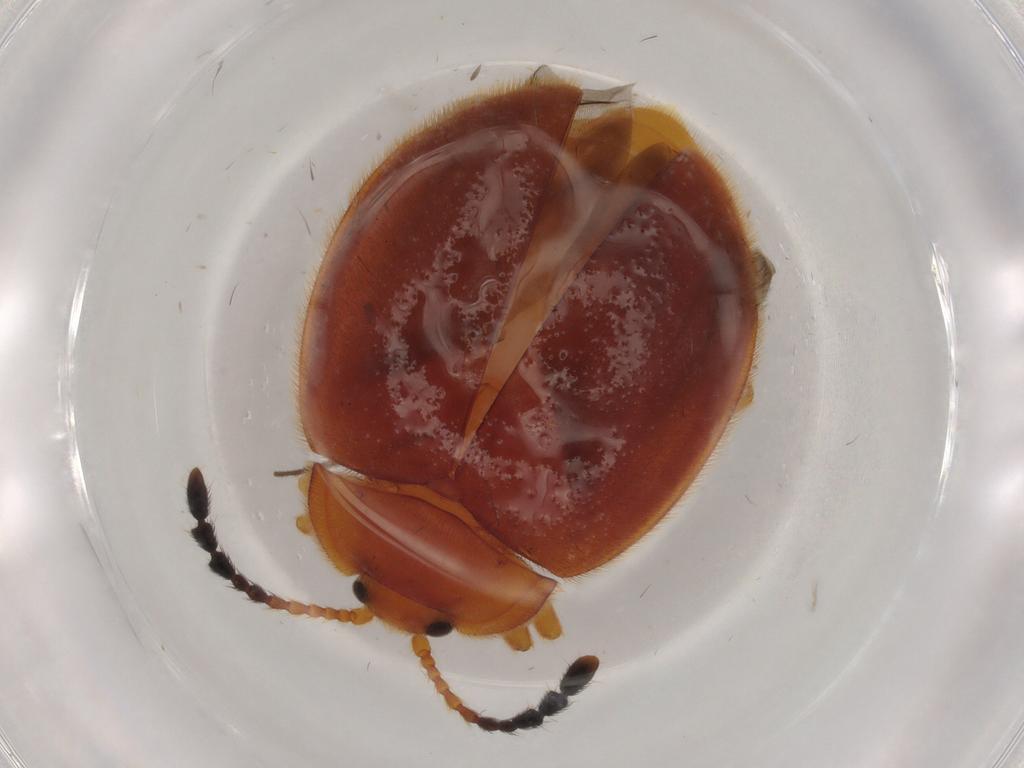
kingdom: Animalia
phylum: Arthropoda
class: Insecta
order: Coleoptera
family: Endomychidae
